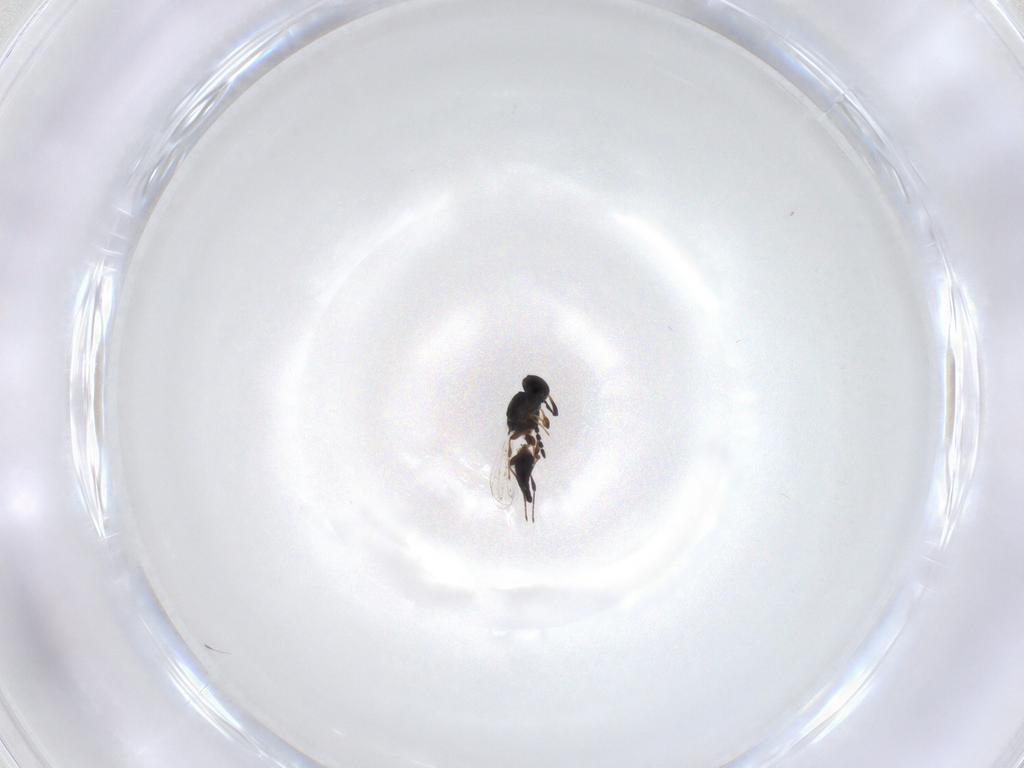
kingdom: Animalia
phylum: Arthropoda
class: Insecta
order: Hymenoptera
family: Platygastridae
